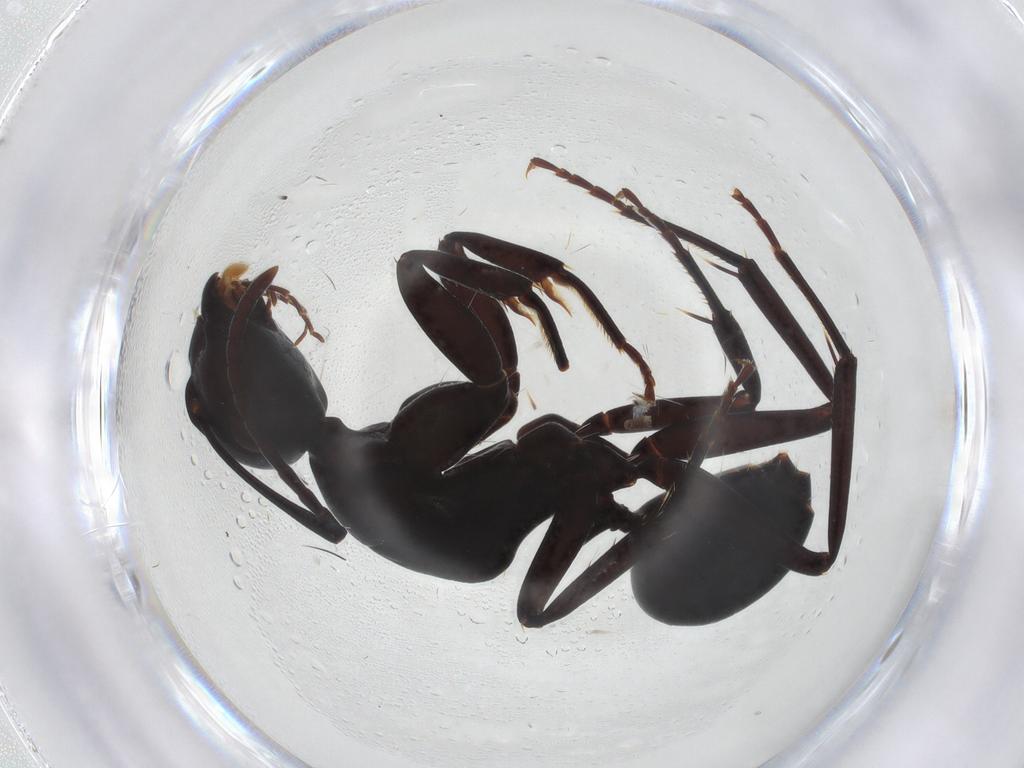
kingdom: Animalia
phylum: Arthropoda
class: Insecta
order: Hymenoptera
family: Formicidae
